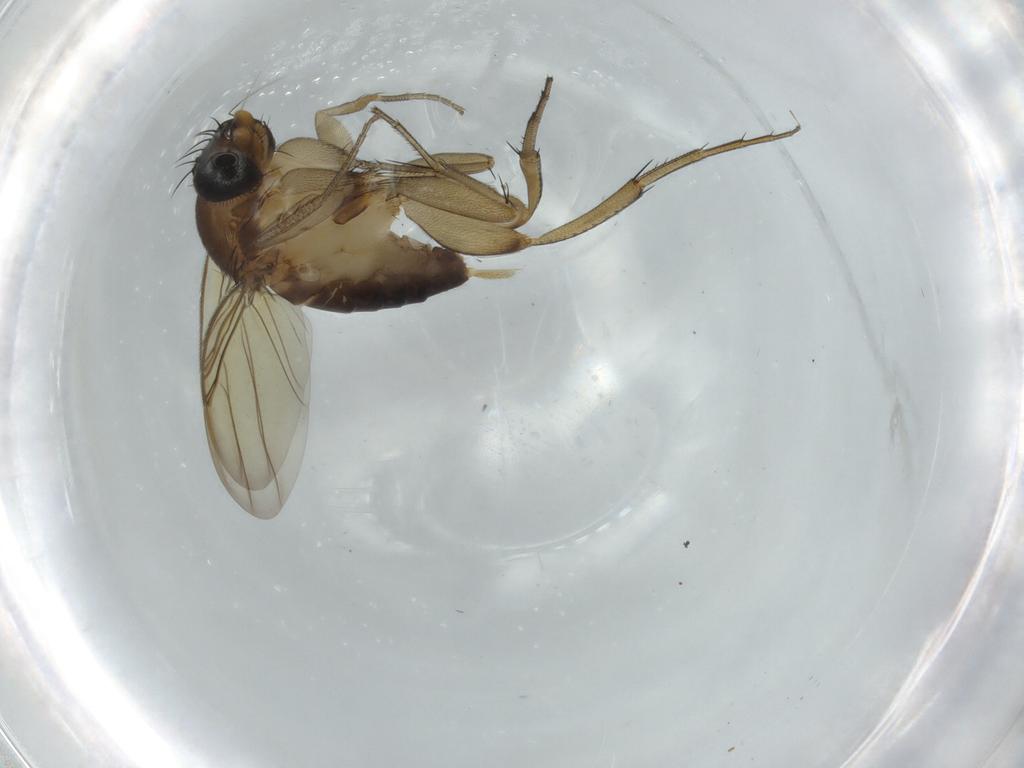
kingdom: Animalia
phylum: Arthropoda
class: Insecta
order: Diptera
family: Phoridae
